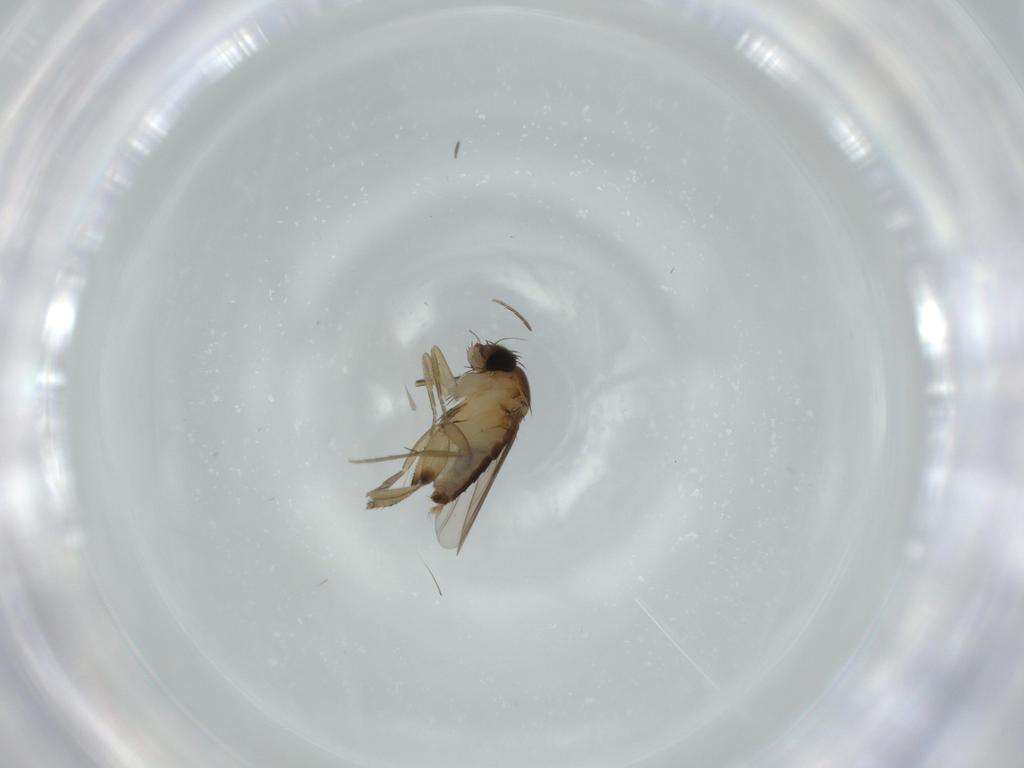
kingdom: Animalia
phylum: Arthropoda
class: Insecta
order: Diptera
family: Phoridae
